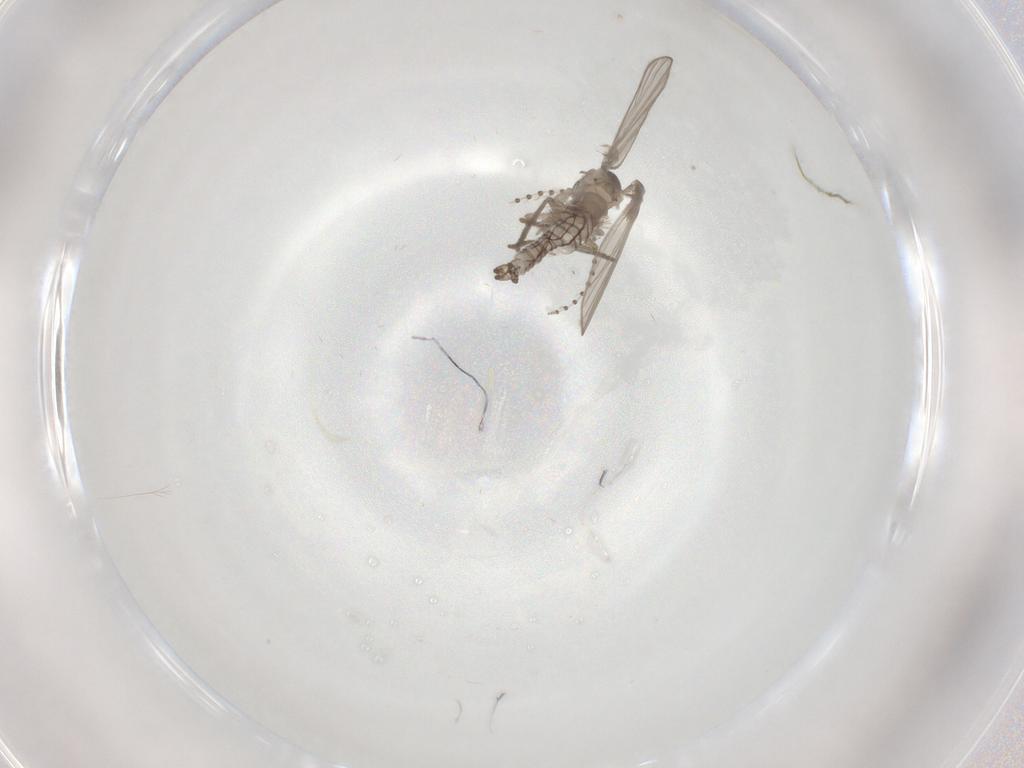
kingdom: Animalia
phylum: Arthropoda
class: Insecta
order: Diptera
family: Psychodidae
